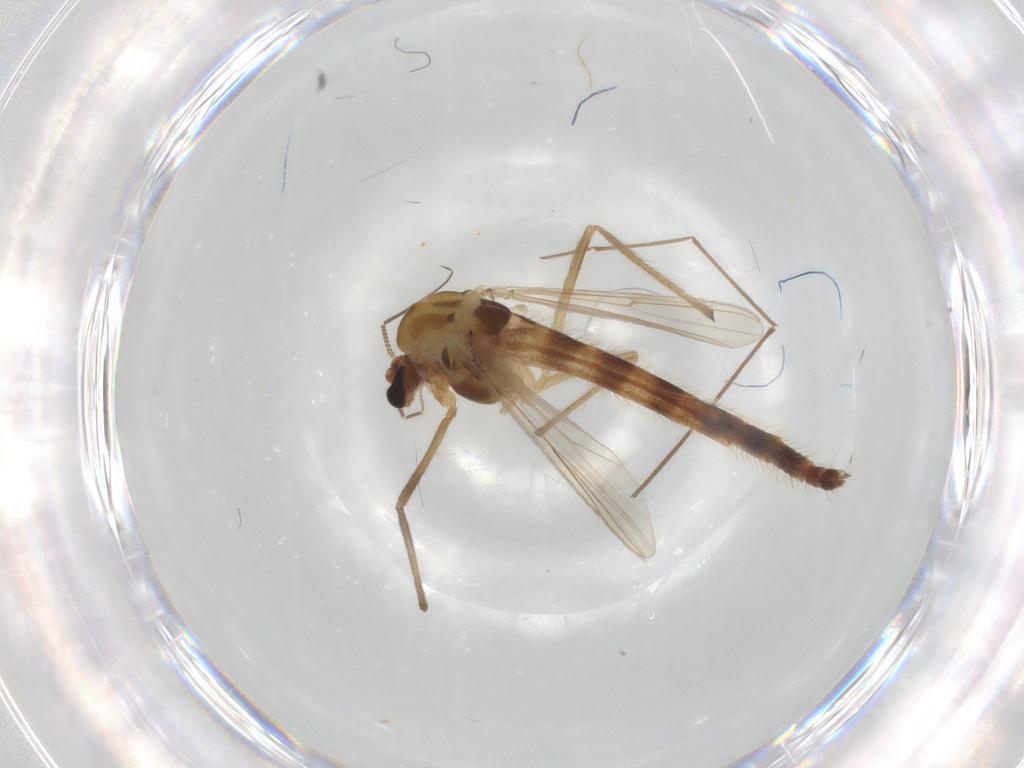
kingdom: Animalia
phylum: Arthropoda
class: Insecta
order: Diptera
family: Chironomidae
